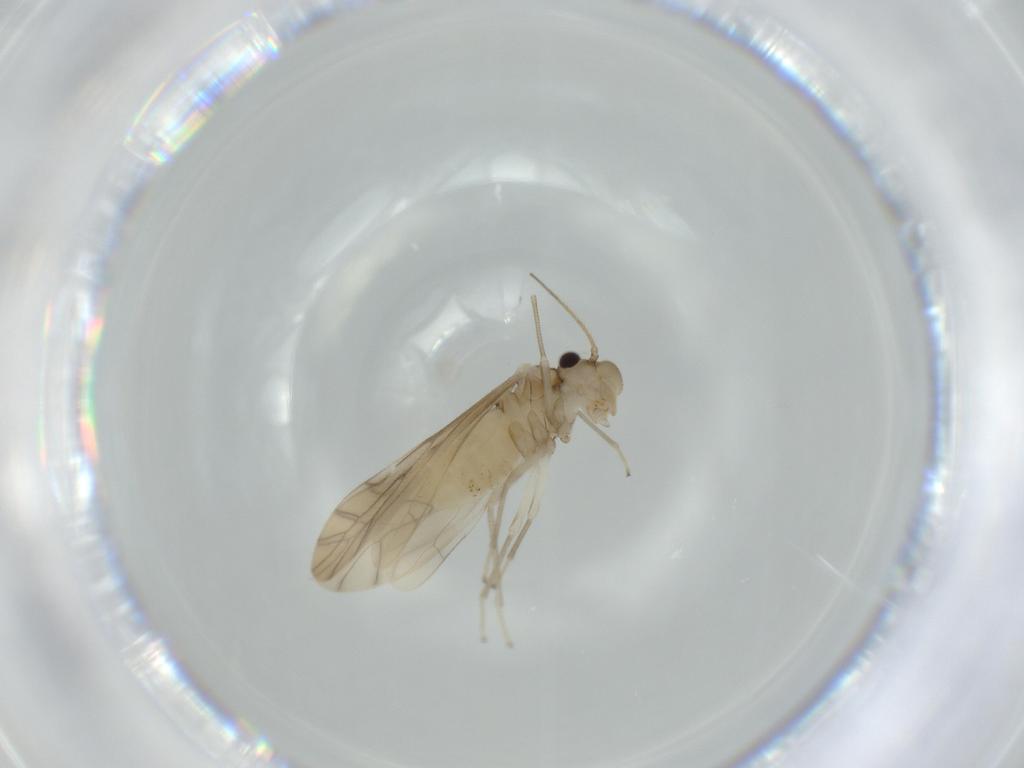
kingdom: Animalia
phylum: Arthropoda
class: Insecta
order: Psocodea
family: Caeciliusidae
